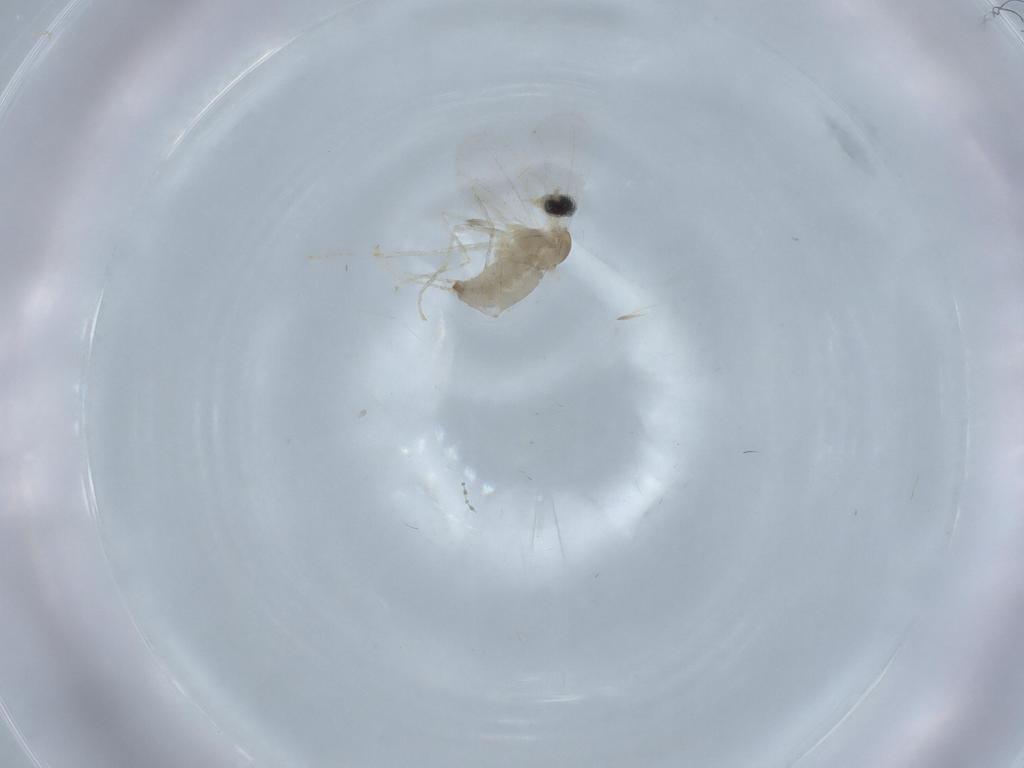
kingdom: Animalia
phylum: Arthropoda
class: Insecta
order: Diptera
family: Cecidomyiidae
